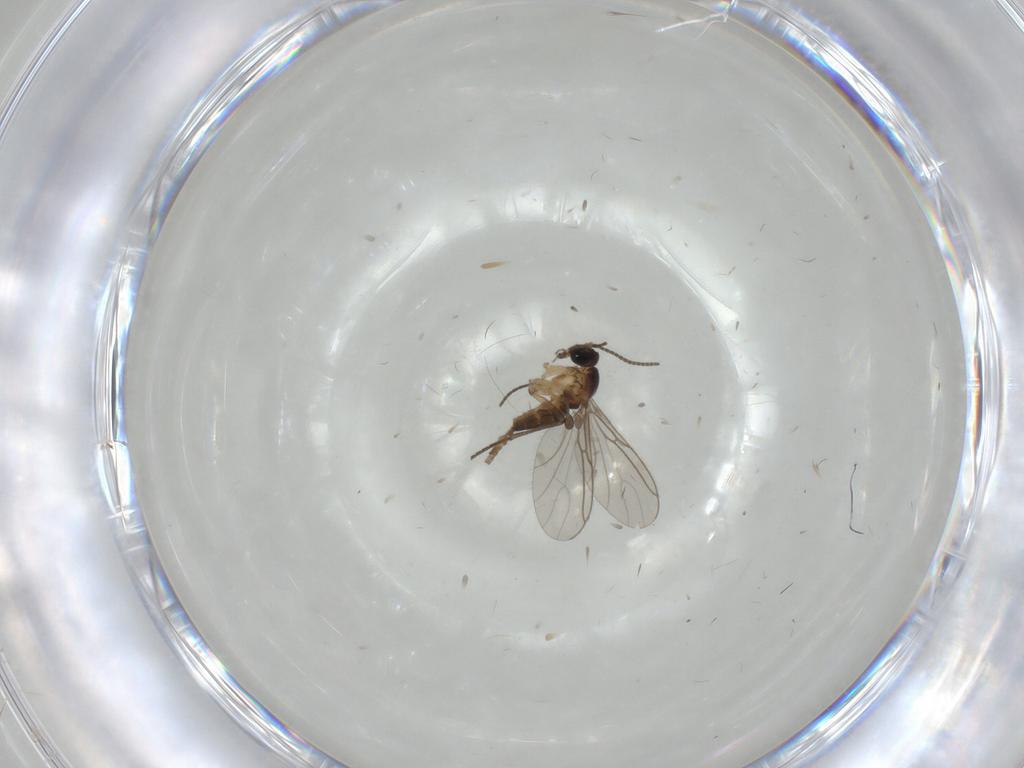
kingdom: Animalia
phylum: Arthropoda
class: Insecta
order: Diptera
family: Sciaridae
